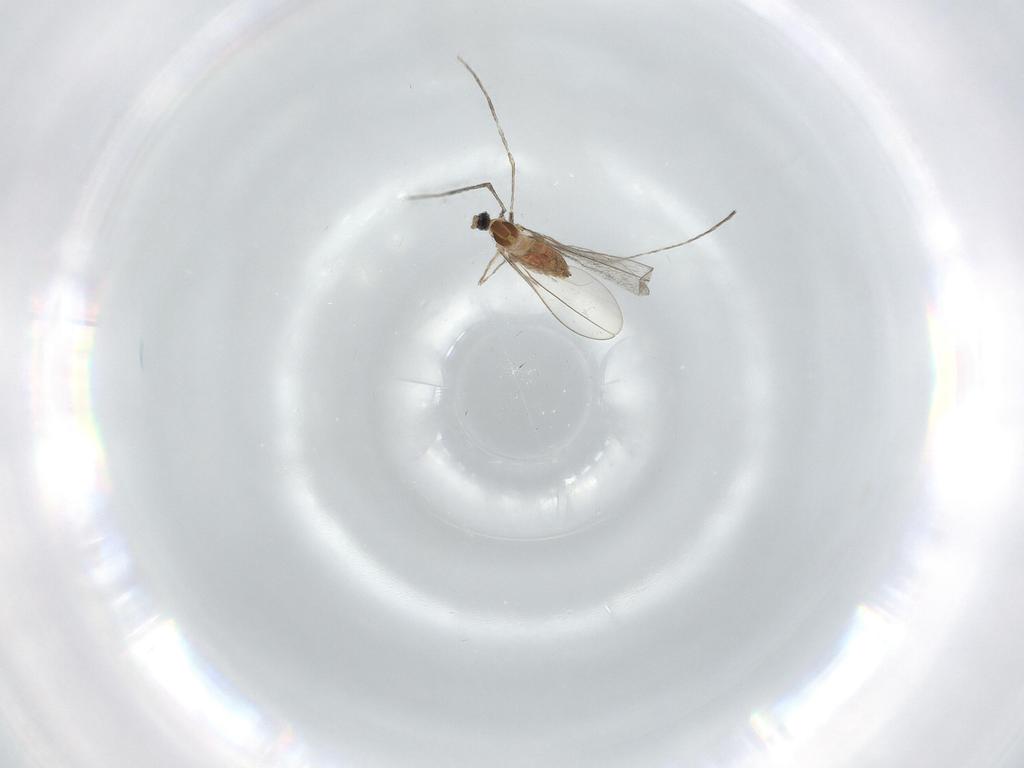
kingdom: Animalia
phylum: Arthropoda
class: Insecta
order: Diptera
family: Cecidomyiidae
